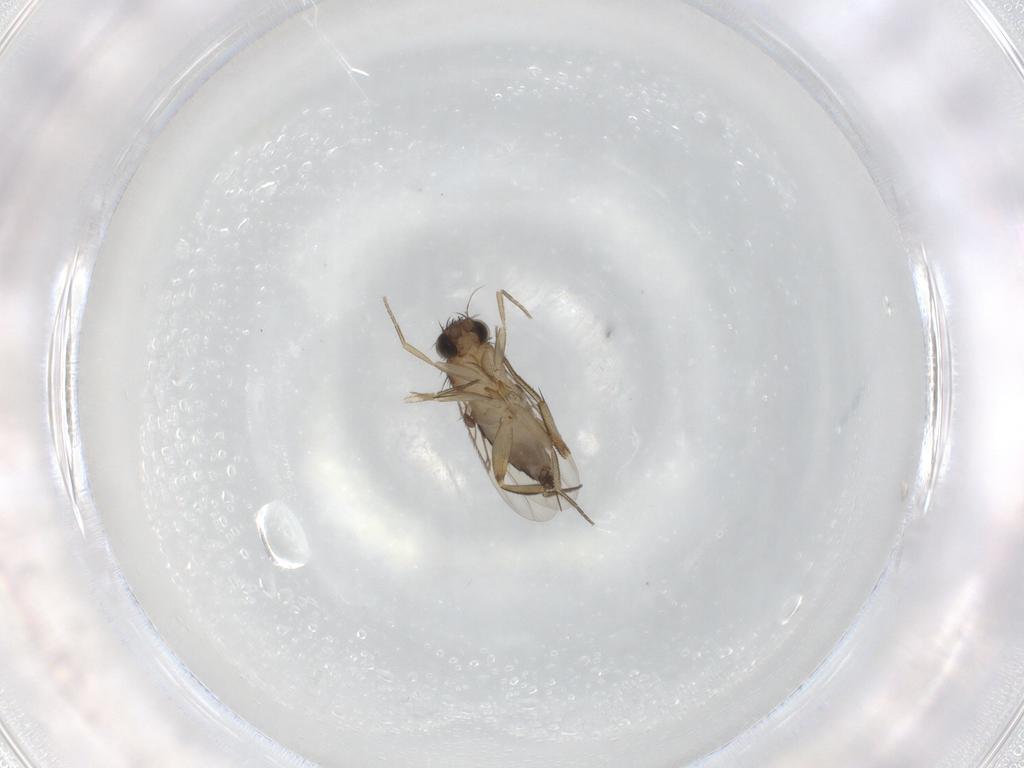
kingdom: Animalia
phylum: Arthropoda
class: Insecta
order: Diptera
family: Phoridae
